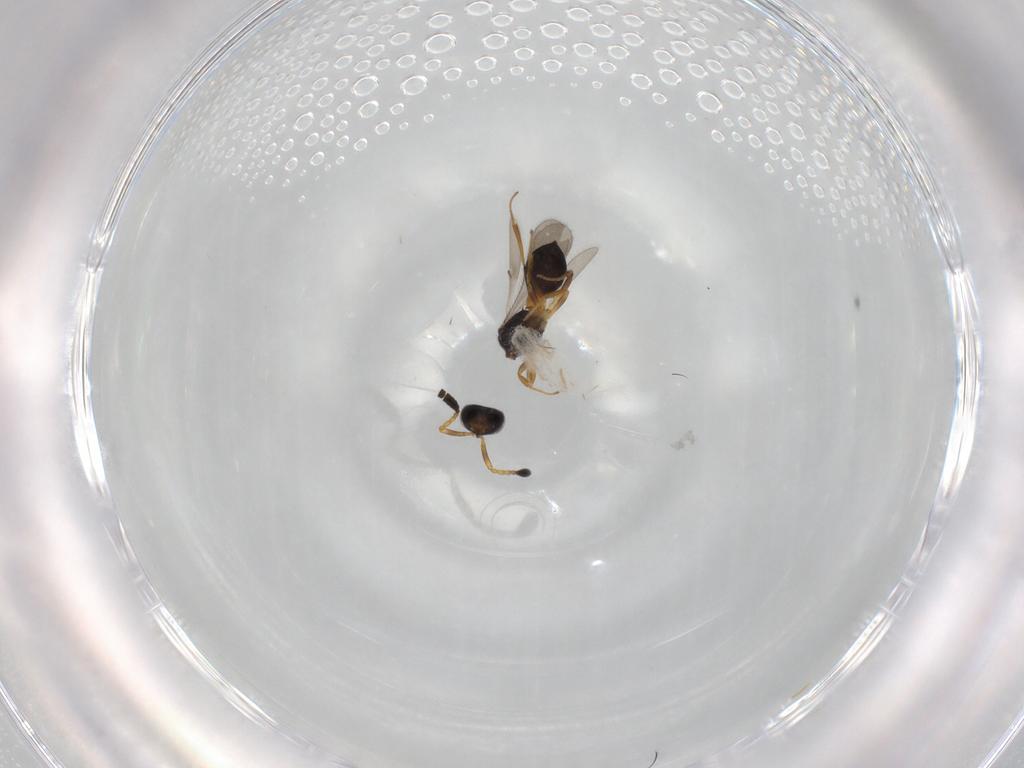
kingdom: Animalia
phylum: Arthropoda
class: Insecta
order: Hymenoptera
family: Scelionidae
